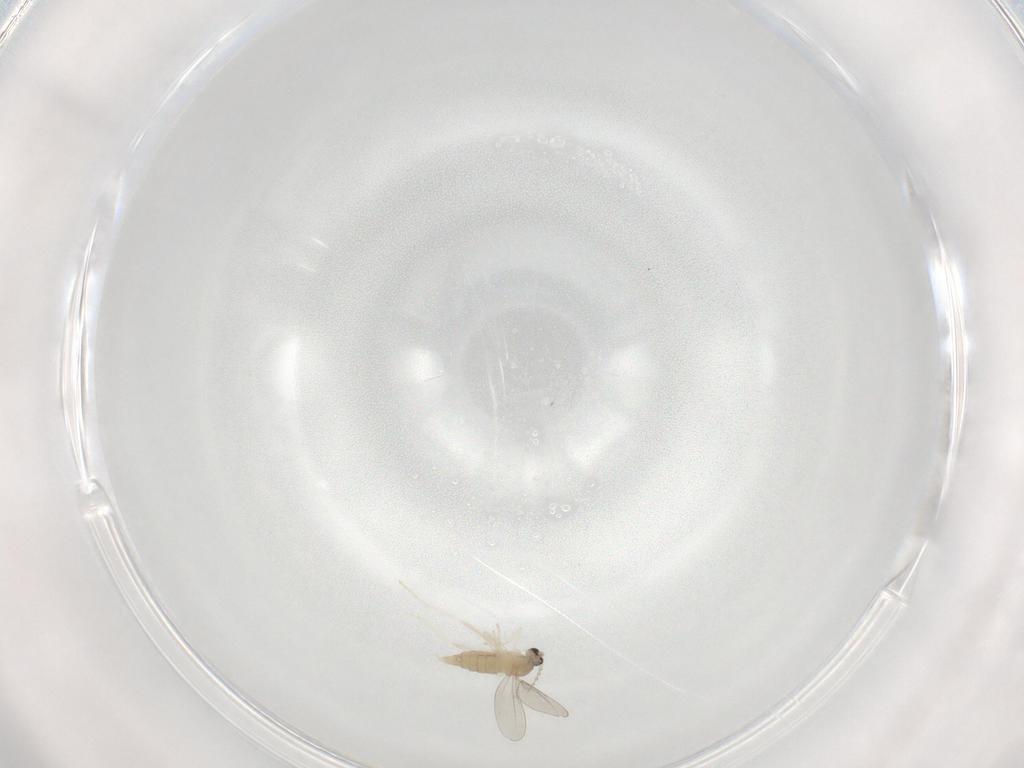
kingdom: Animalia
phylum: Arthropoda
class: Insecta
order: Diptera
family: Cecidomyiidae
